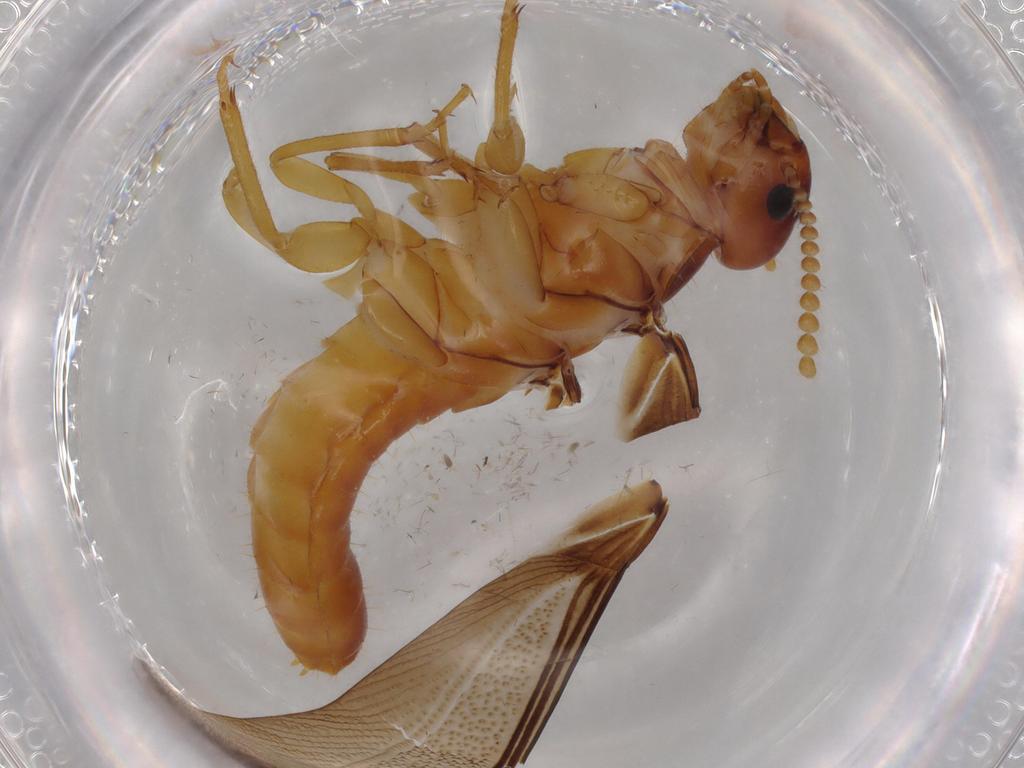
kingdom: Animalia
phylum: Arthropoda
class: Insecta
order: Blattodea
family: Kalotermitidae
